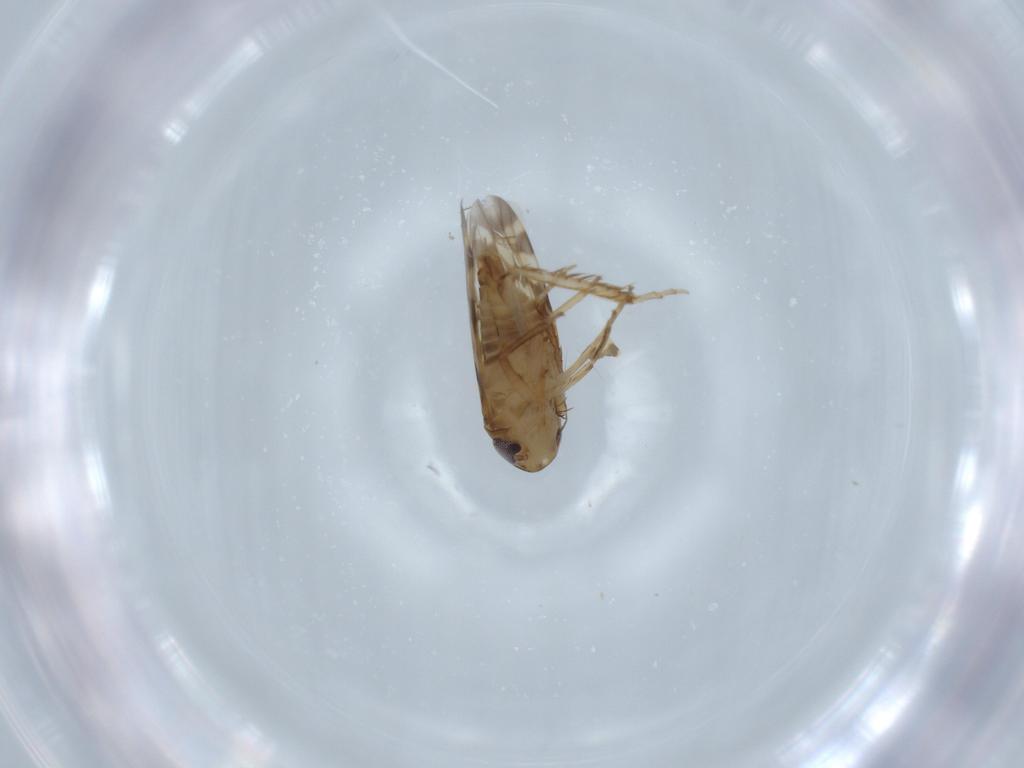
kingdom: Animalia
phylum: Arthropoda
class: Insecta
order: Hemiptera
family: Cicadellidae
